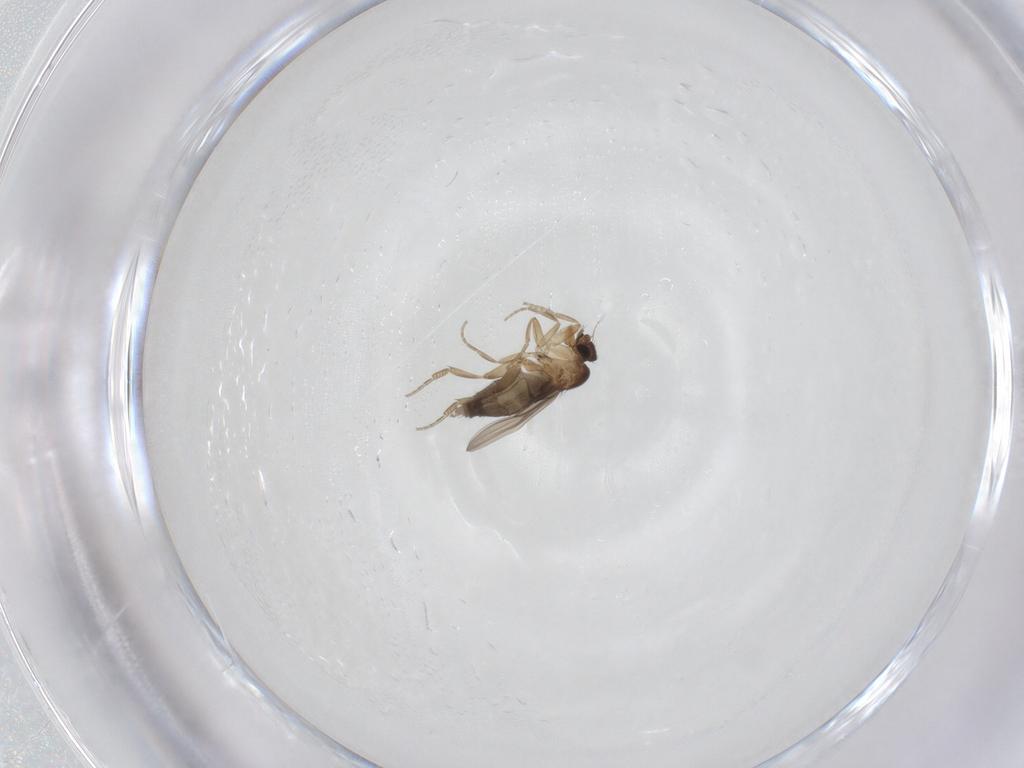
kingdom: Animalia
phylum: Arthropoda
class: Insecta
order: Diptera
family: Phoridae
